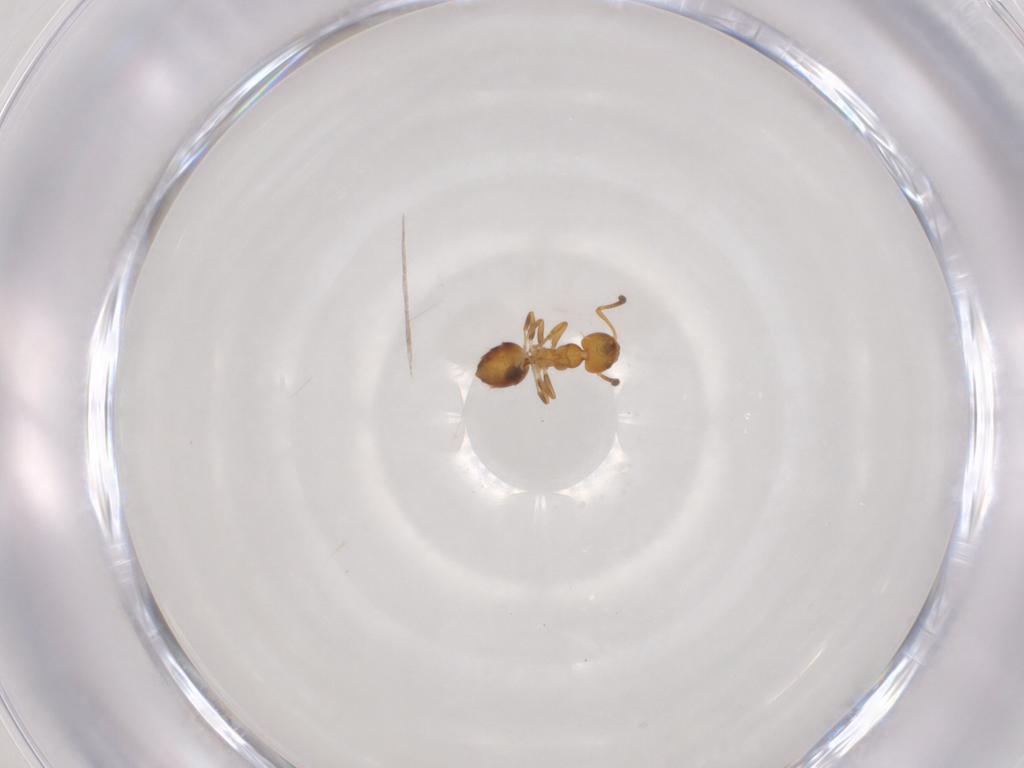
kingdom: Animalia
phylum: Arthropoda
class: Insecta
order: Hymenoptera
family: Formicidae
